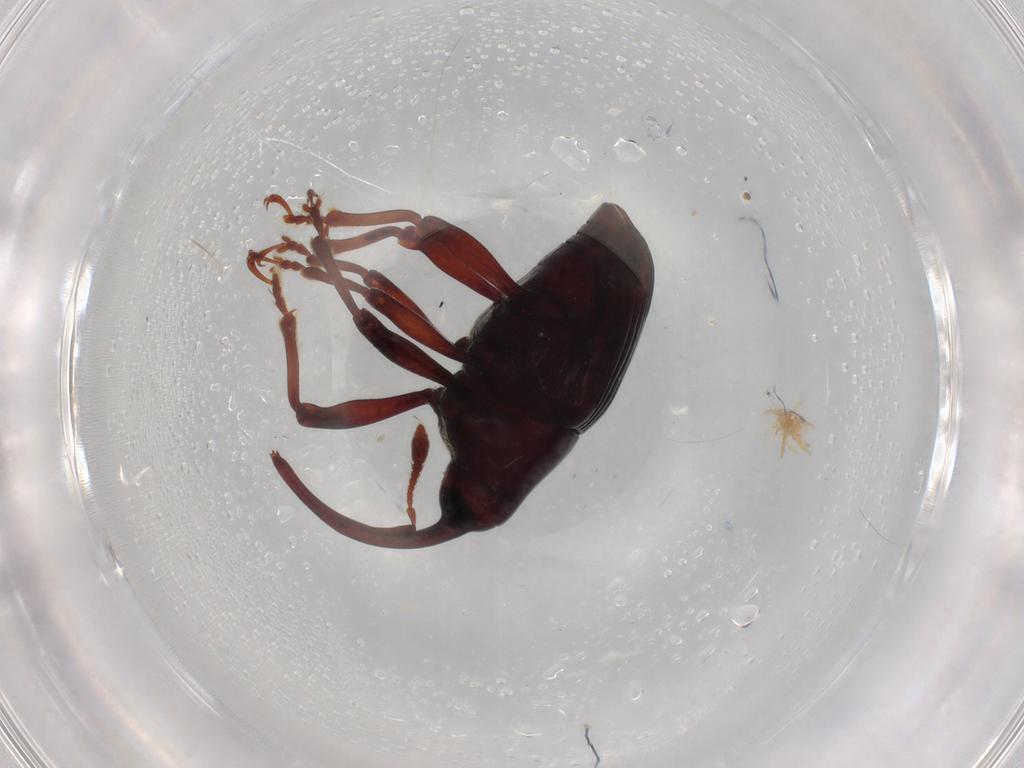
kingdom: Animalia
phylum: Arthropoda
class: Insecta
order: Coleoptera
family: Curculionidae
